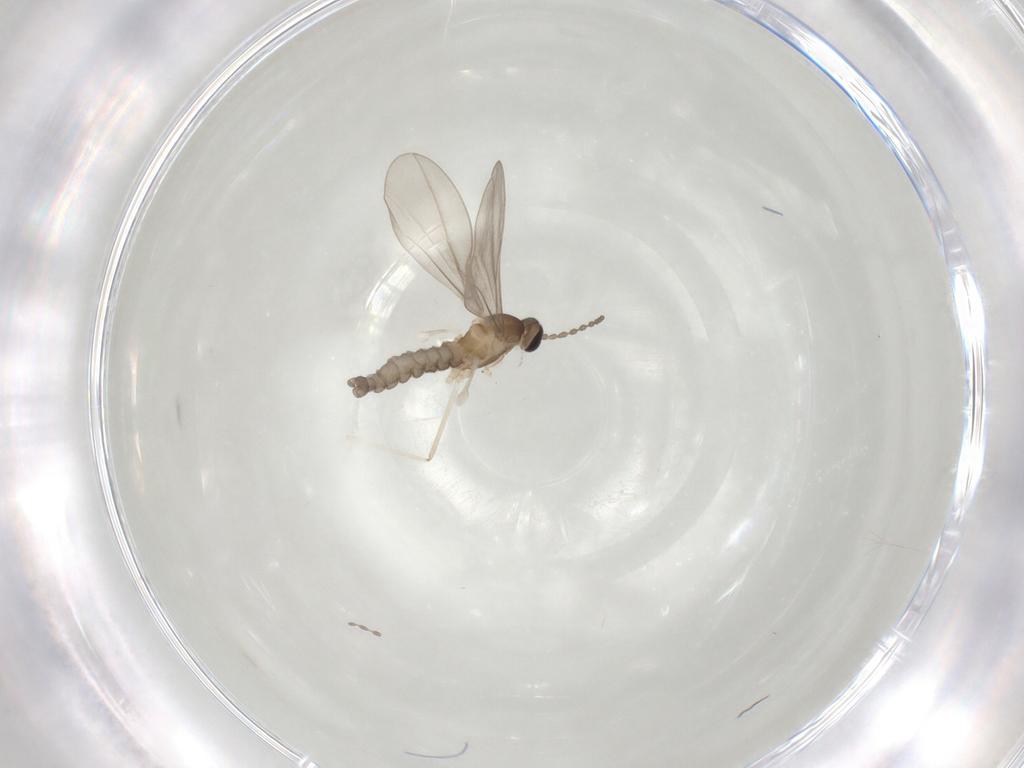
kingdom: Animalia
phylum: Arthropoda
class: Insecta
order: Diptera
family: Cecidomyiidae
